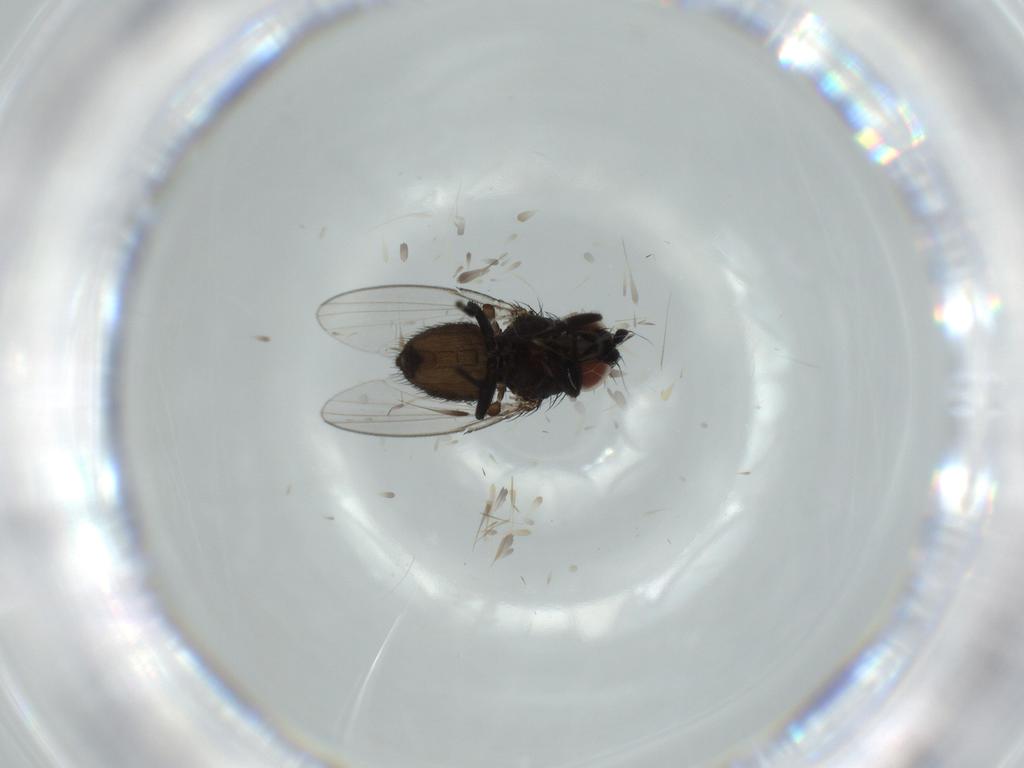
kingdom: Animalia
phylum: Arthropoda
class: Insecta
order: Diptera
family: Milichiidae
